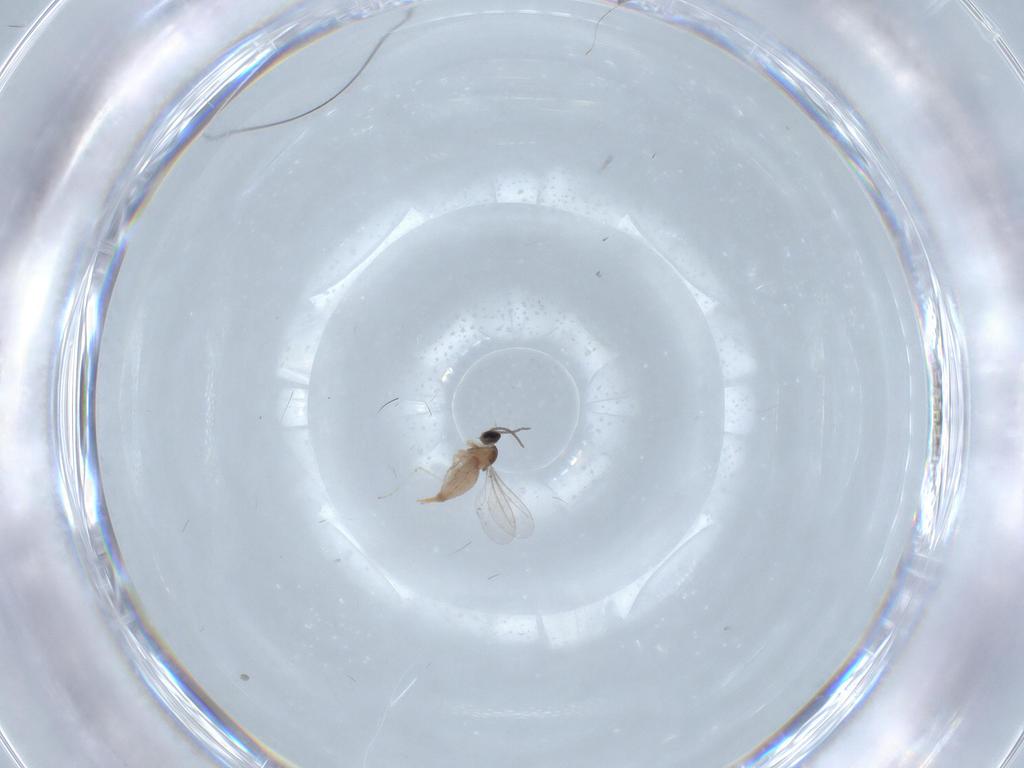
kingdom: Animalia
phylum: Arthropoda
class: Insecta
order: Diptera
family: Cecidomyiidae
